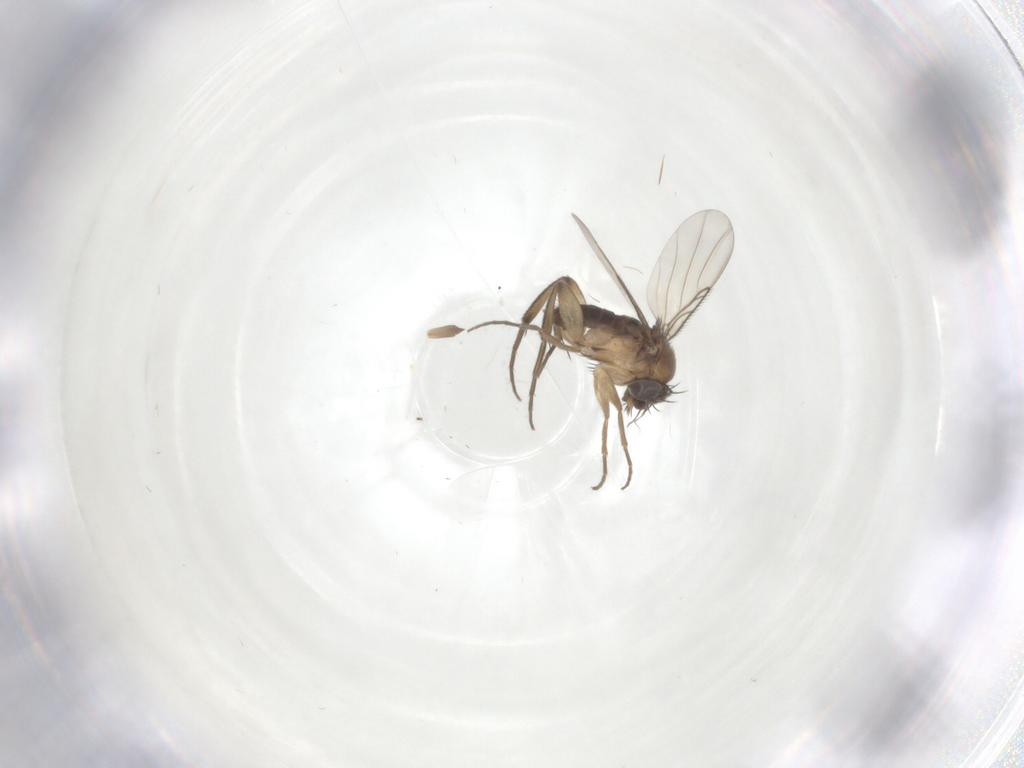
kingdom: Animalia
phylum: Arthropoda
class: Insecta
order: Diptera
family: Phoridae
